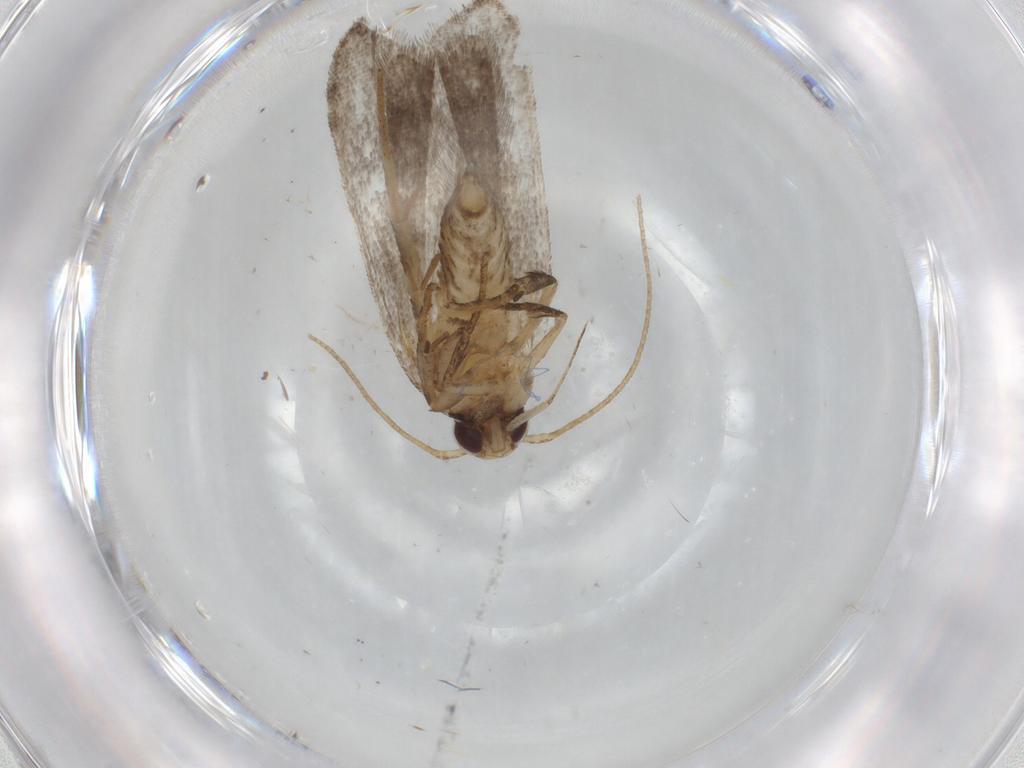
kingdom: Animalia
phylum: Arthropoda
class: Insecta
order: Lepidoptera
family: Gelechiidae
